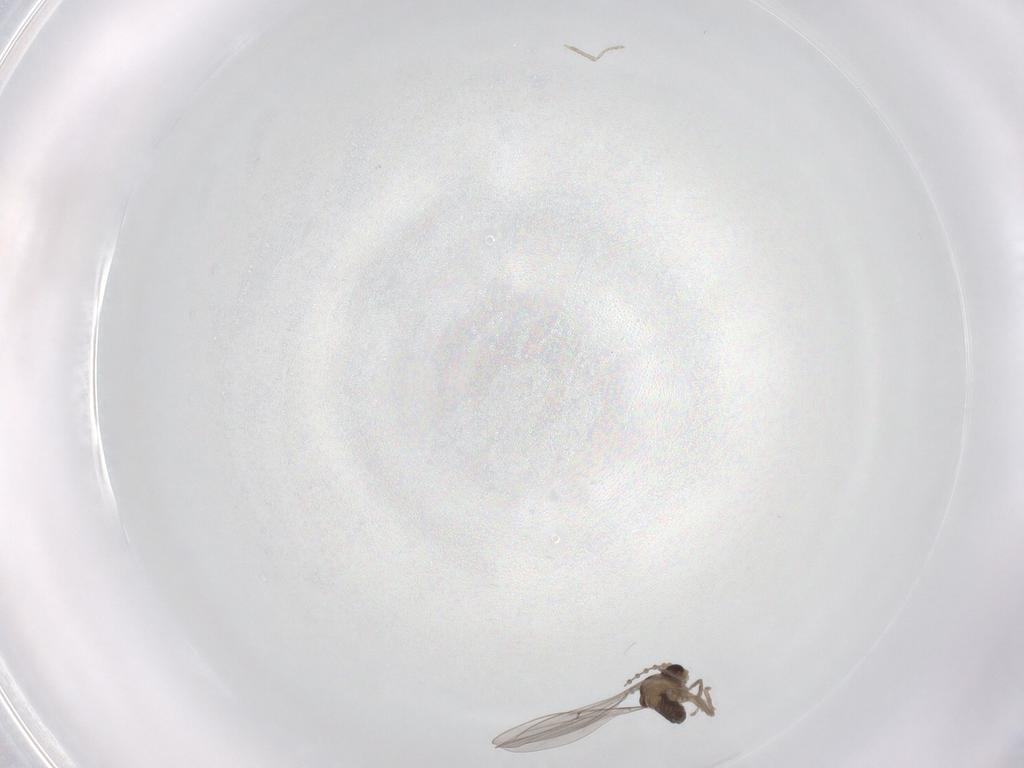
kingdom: Animalia
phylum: Arthropoda
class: Insecta
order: Diptera
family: Cecidomyiidae
